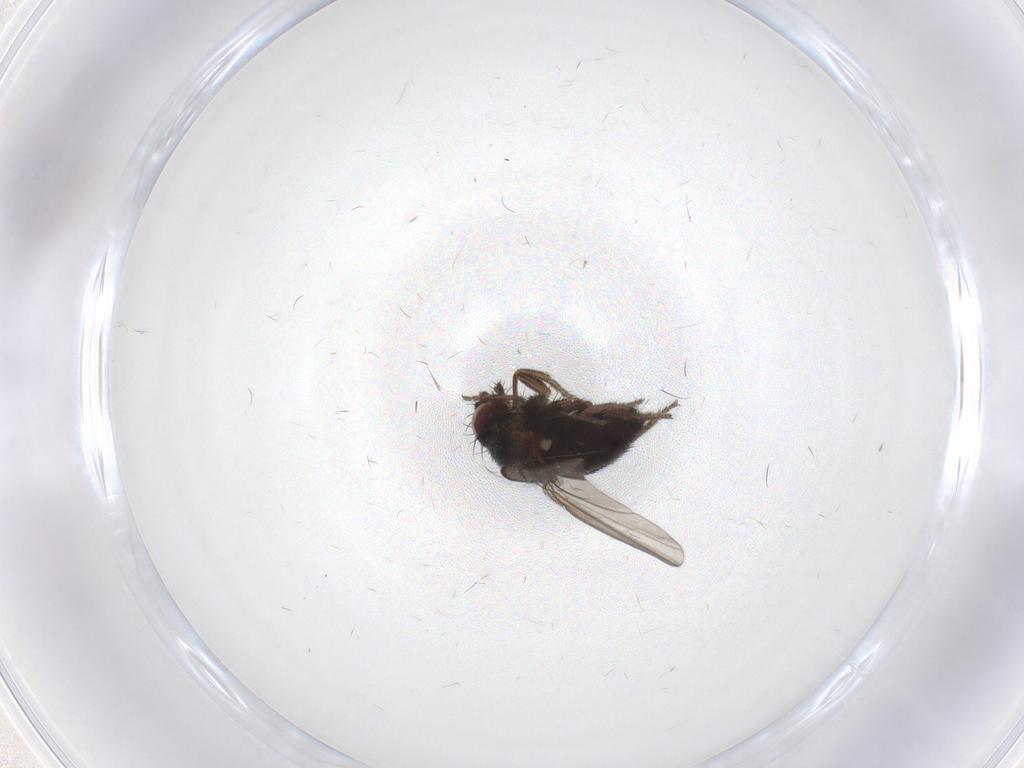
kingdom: Animalia
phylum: Arthropoda
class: Insecta
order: Diptera
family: Milichiidae
